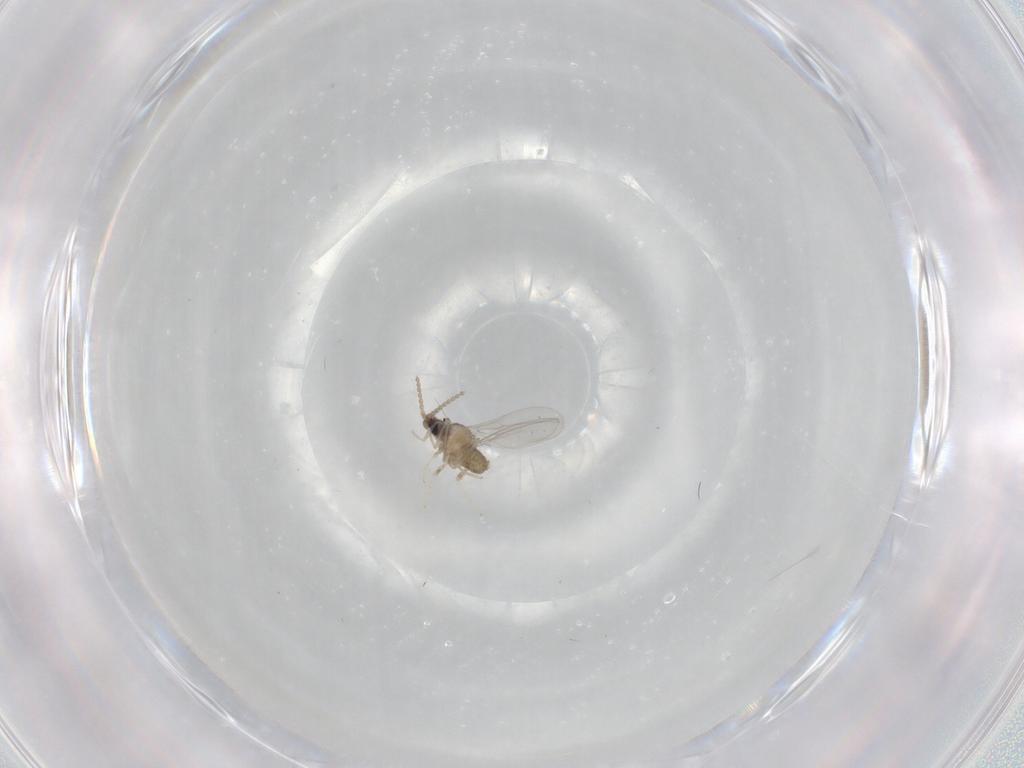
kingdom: Animalia
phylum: Arthropoda
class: Insecta
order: Diptera
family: Cecidomyiidae
